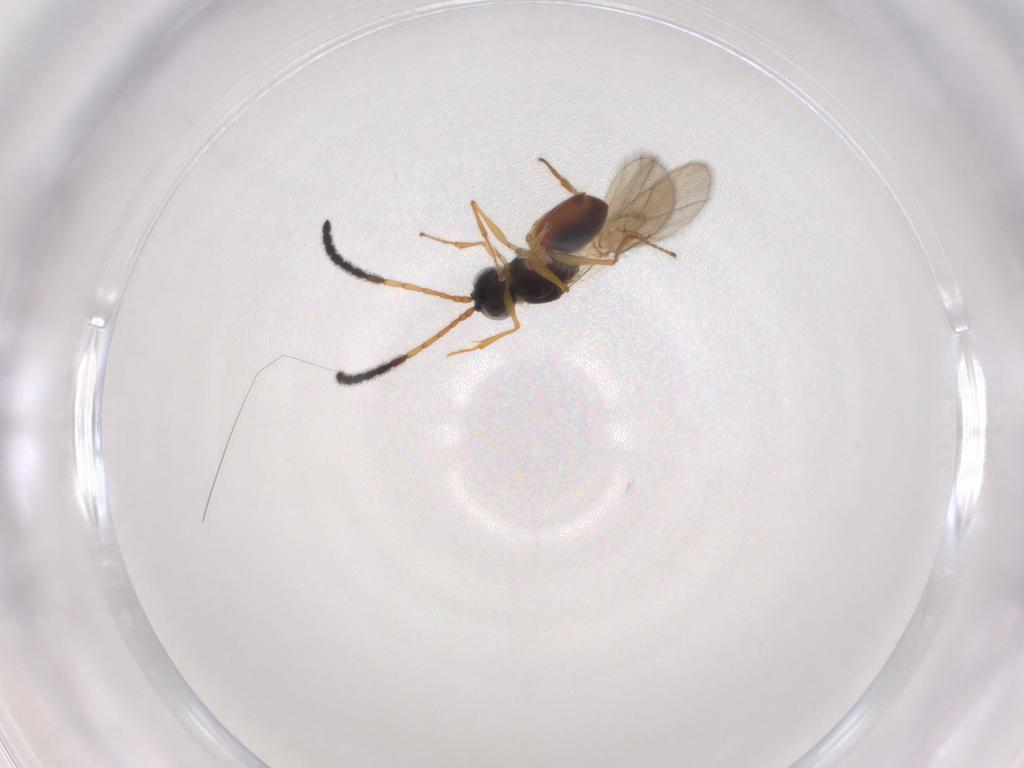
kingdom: Animalia
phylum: Arthropoda
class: Insecta
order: Hymenoptera
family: Figitidae
